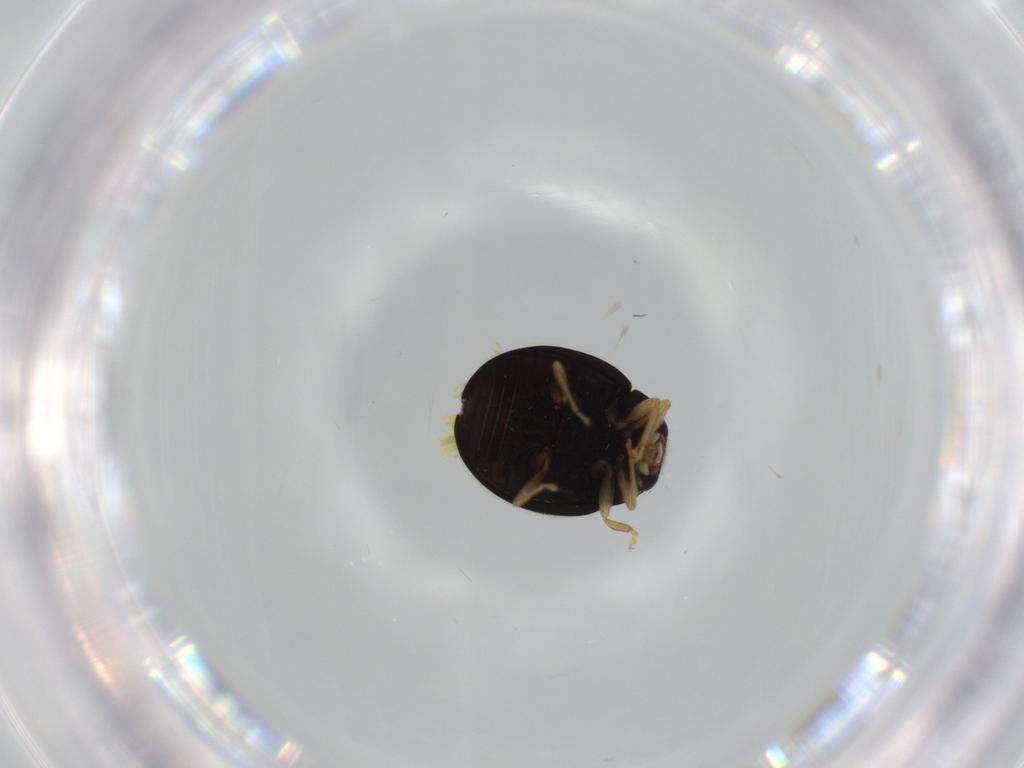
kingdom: Animalia
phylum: Arthropoda
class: Insecta
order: Coleoptera
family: Coccinellidae
